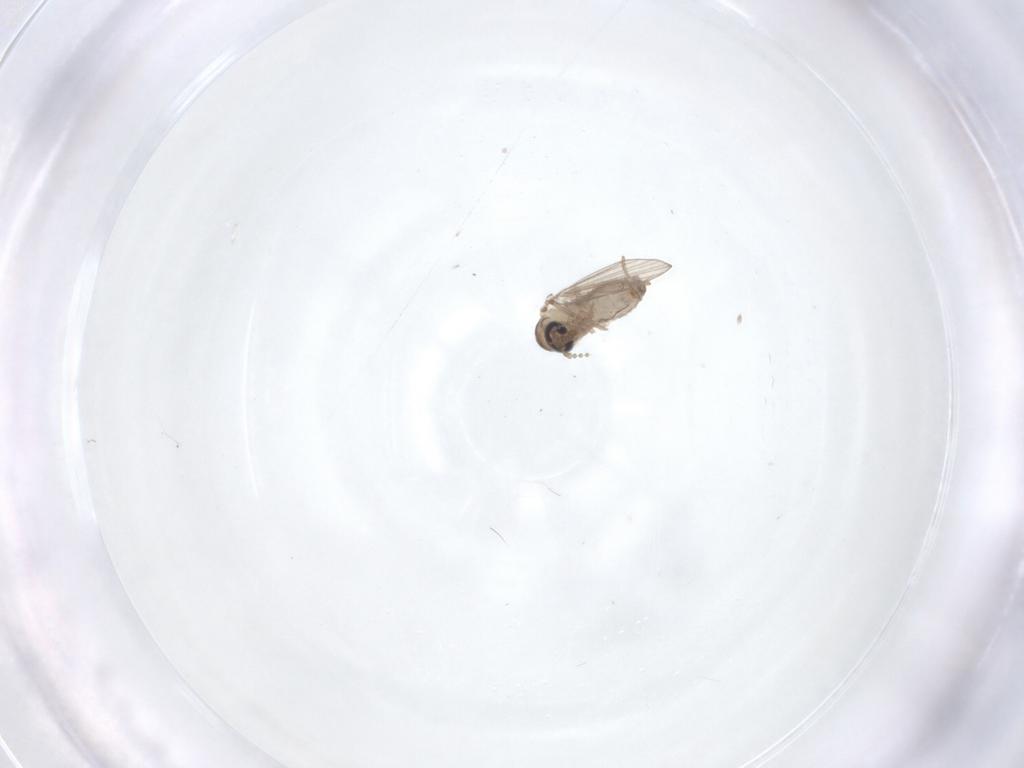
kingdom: Animalia
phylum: Arthropoda
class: Insecta
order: Diptera
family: Psychodidae
